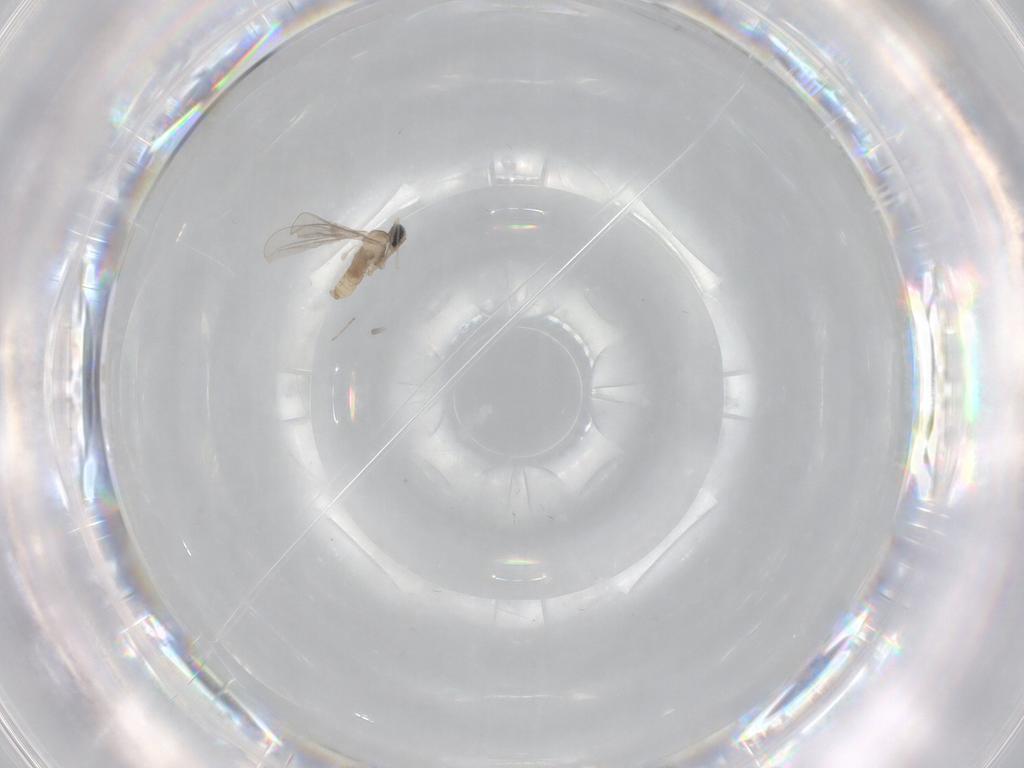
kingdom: Animalia
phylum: Arthropoda
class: Insecta
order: Diptera
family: Cecidomyiidae
